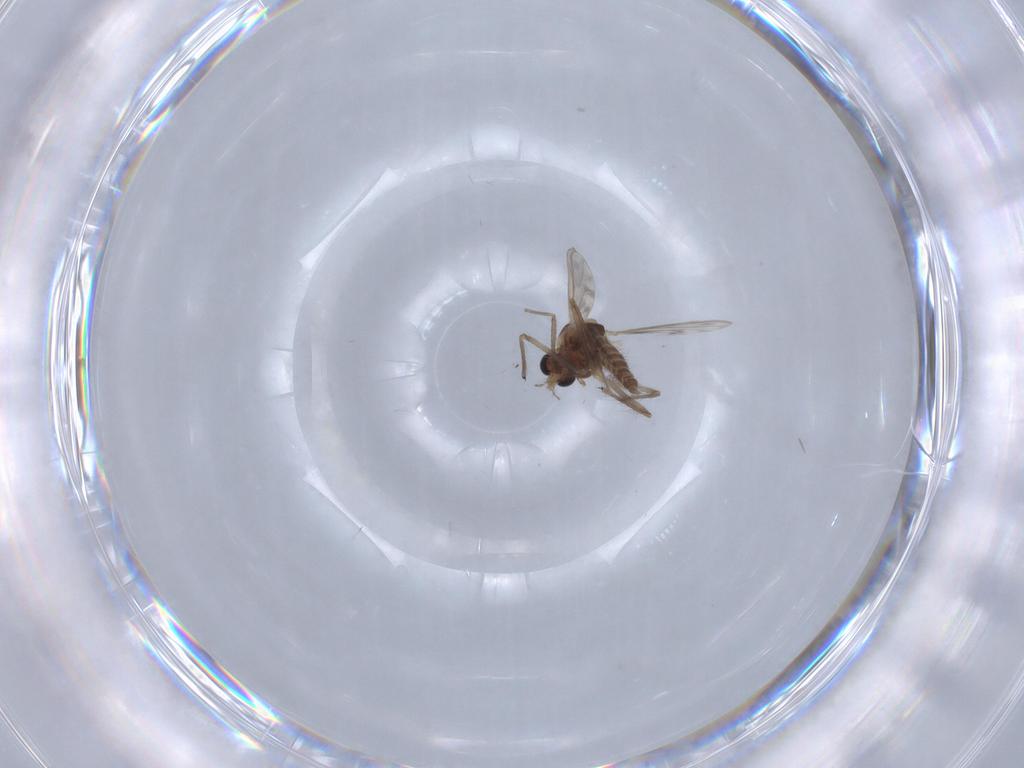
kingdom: Animalia
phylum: Arthropoda
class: Insecta
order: Diptera
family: Chironomidae
